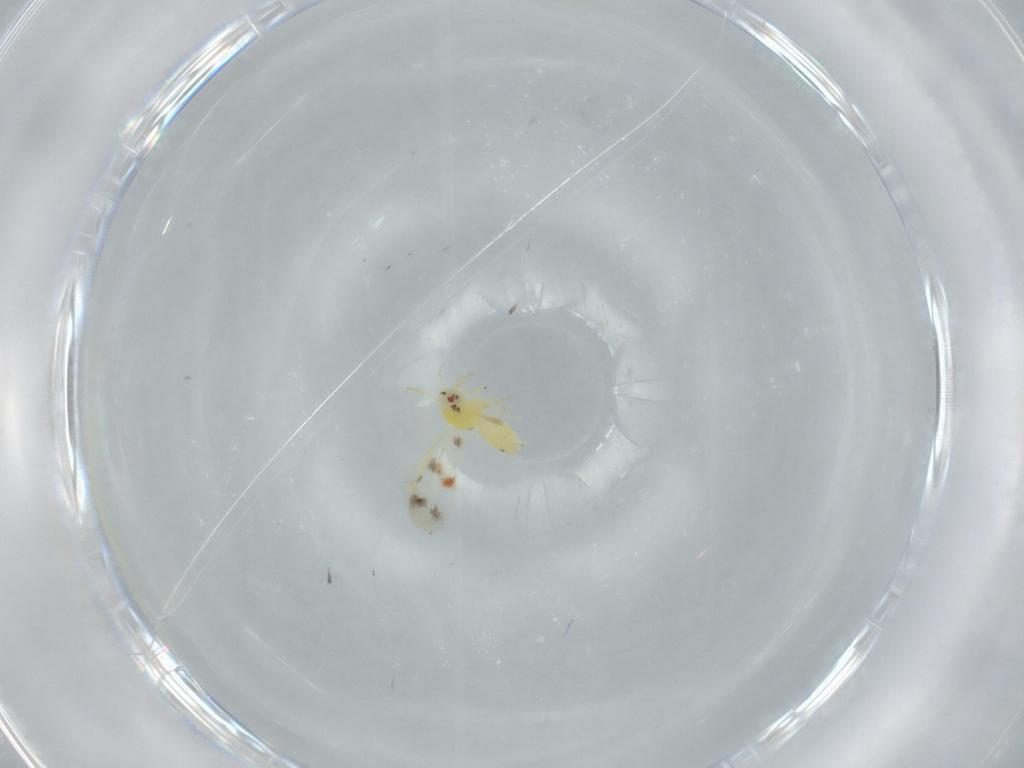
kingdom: Animalia
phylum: Arthropoda
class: Insecta
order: Hemiptera
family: Aleyrodidae
